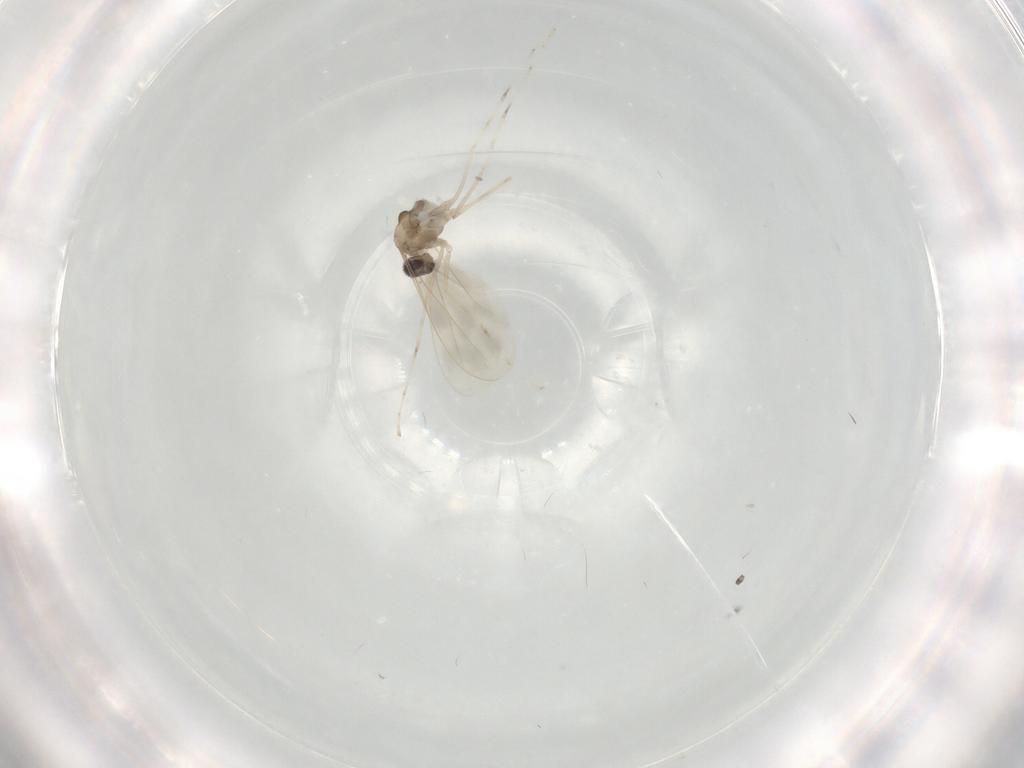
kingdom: Animalia
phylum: Arthropoda
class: Insecta
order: Diptera
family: Cecidomyiidae
